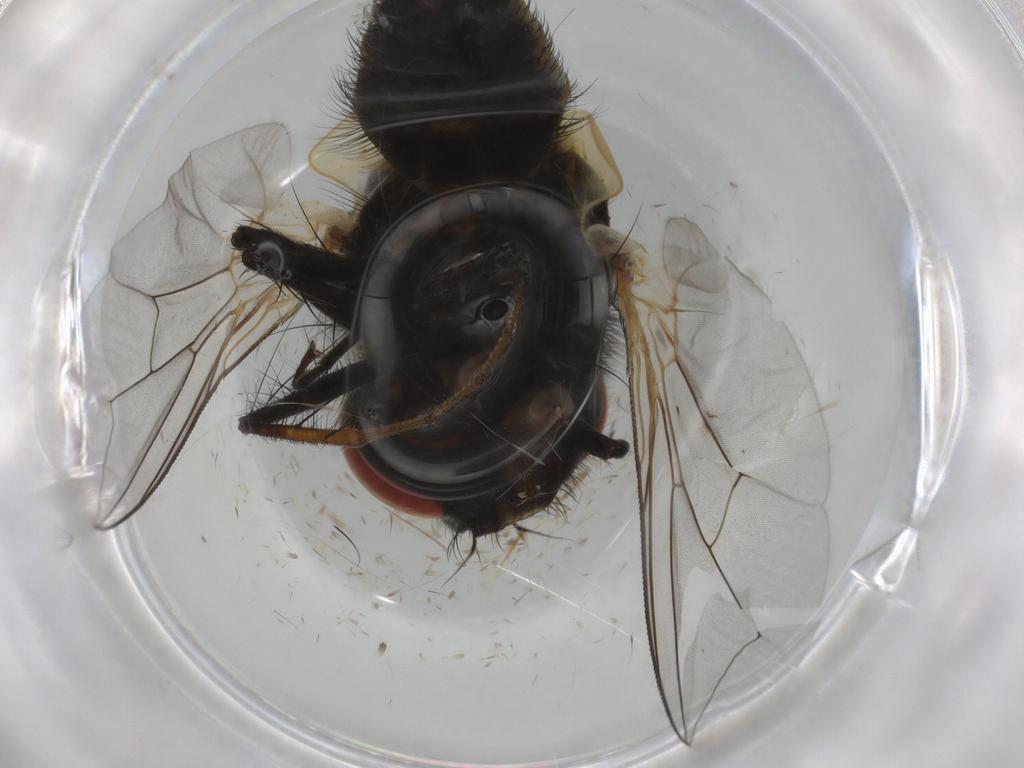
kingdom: Animalia
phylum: Arthropoda
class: Insecta
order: Diptera
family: Sarcophagidae
